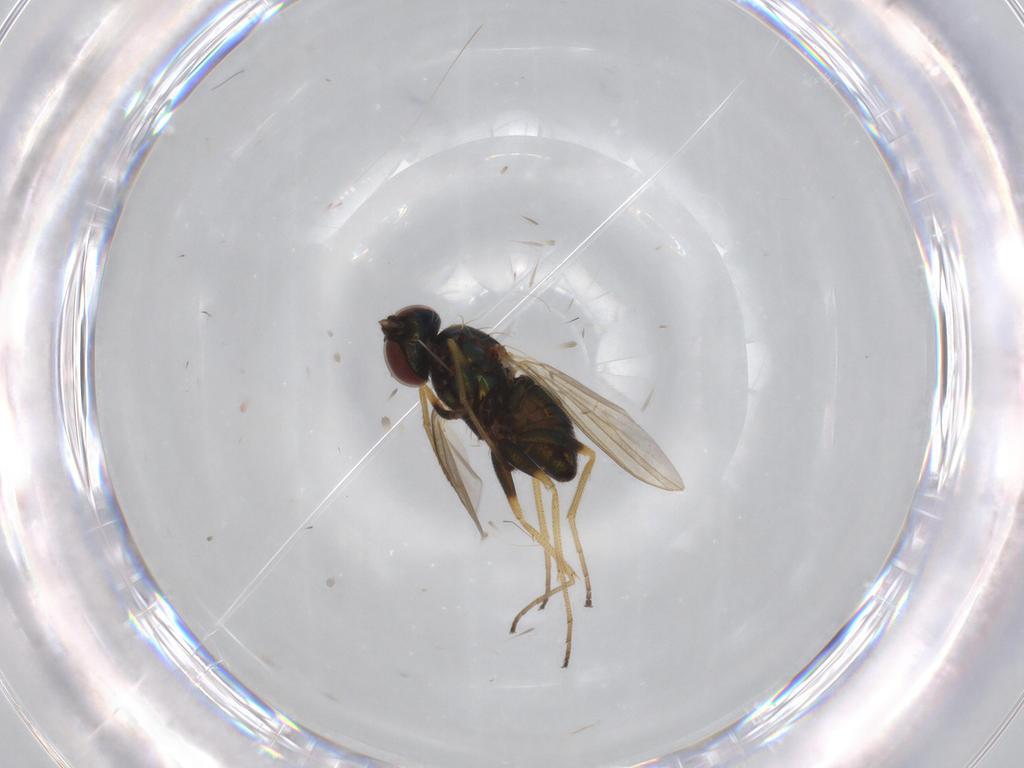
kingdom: Animalia
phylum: Arthropoda
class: Insecta
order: Diptera
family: Dolichopodidae
